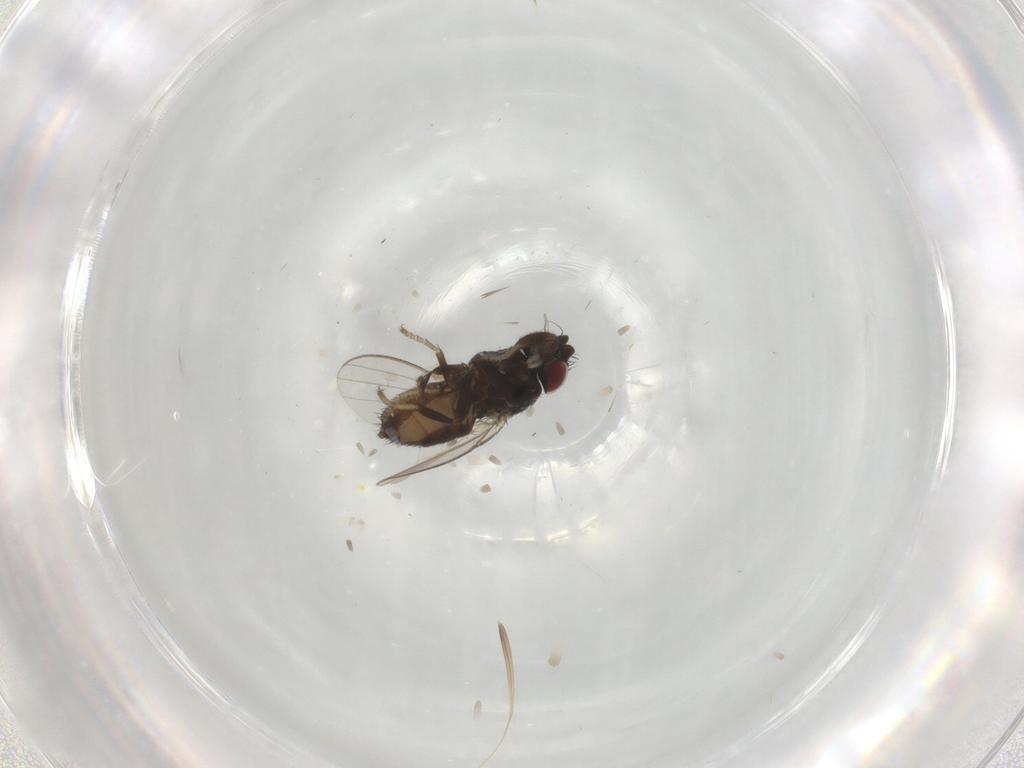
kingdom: Animalia
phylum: Arthropoda
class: Insecta
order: Diptera
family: Milichiidae
